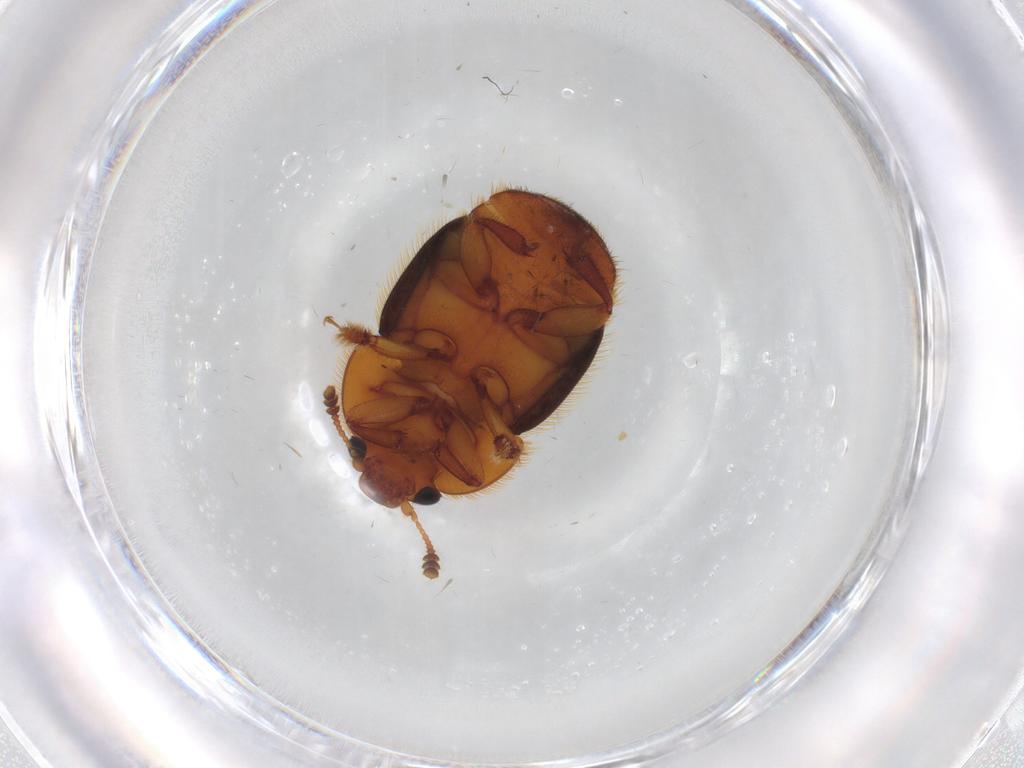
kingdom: Animalia
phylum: Arthropoda
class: Insecta
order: Coleoptera
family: Nitidulidae
